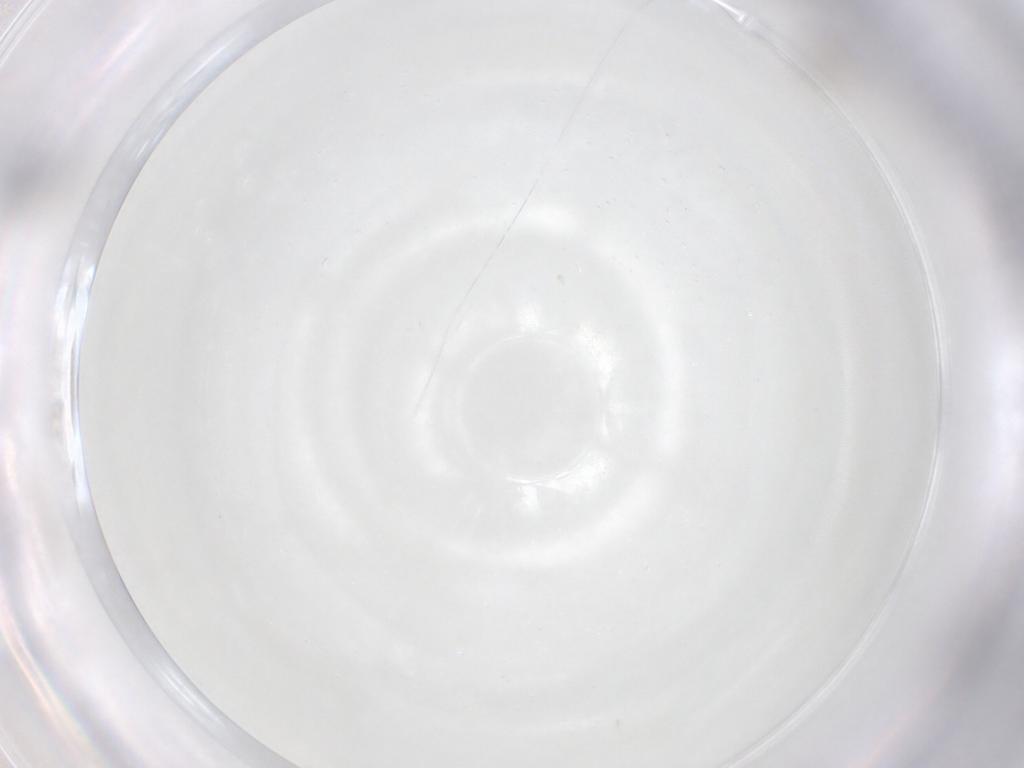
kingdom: Animalia
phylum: Arthropoda
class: Insecta
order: Diptera
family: Cecidomyiidae
